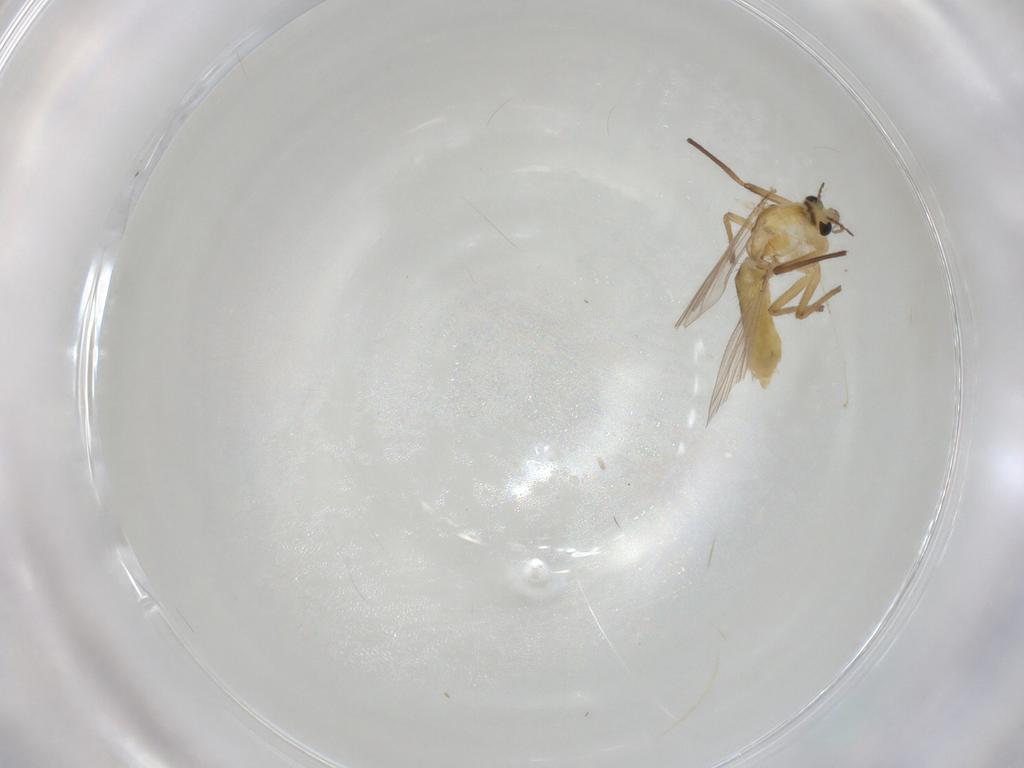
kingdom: Animalia
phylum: Arthropoda
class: Insecta
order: Diptera
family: Chironomidae
